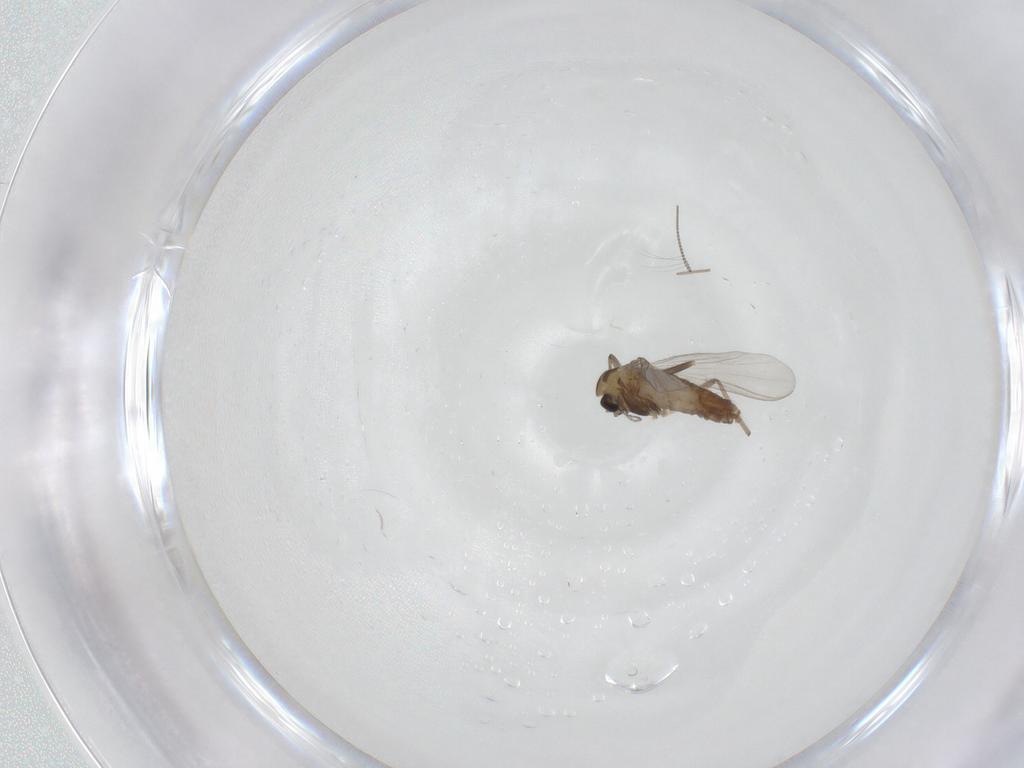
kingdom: Animalia
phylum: Arthropoda
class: Insecta
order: Diptera
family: Chironomidae
